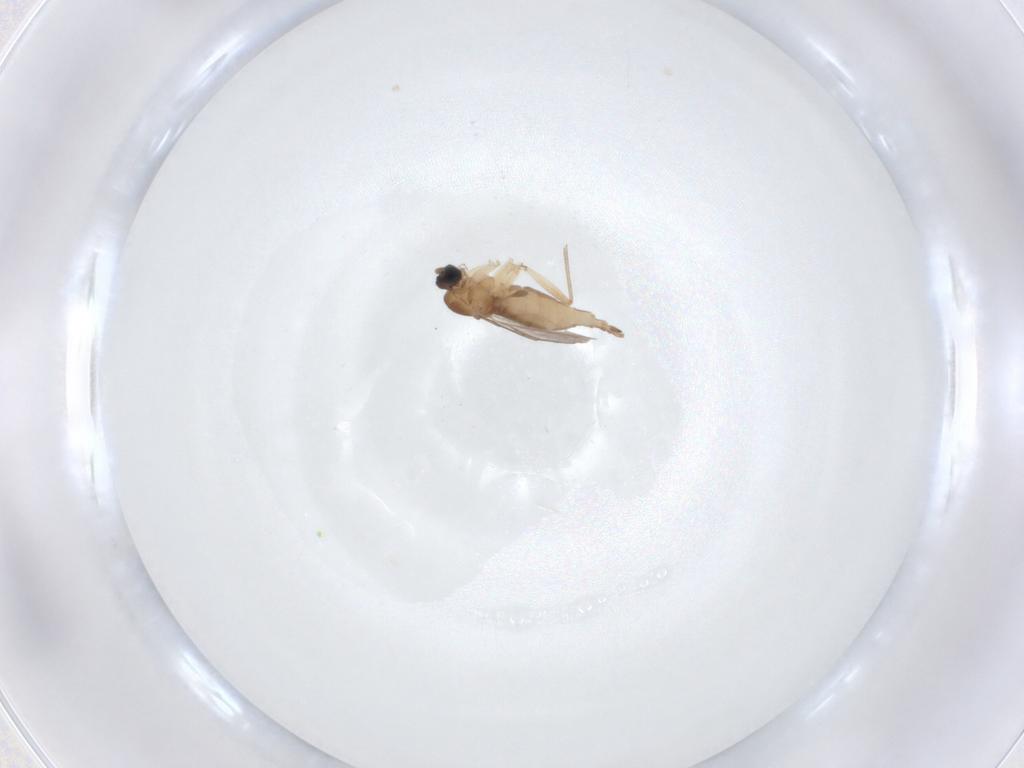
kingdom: Animalia
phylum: Arthropoda
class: Insecta
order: Diptera
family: Sciaridae
